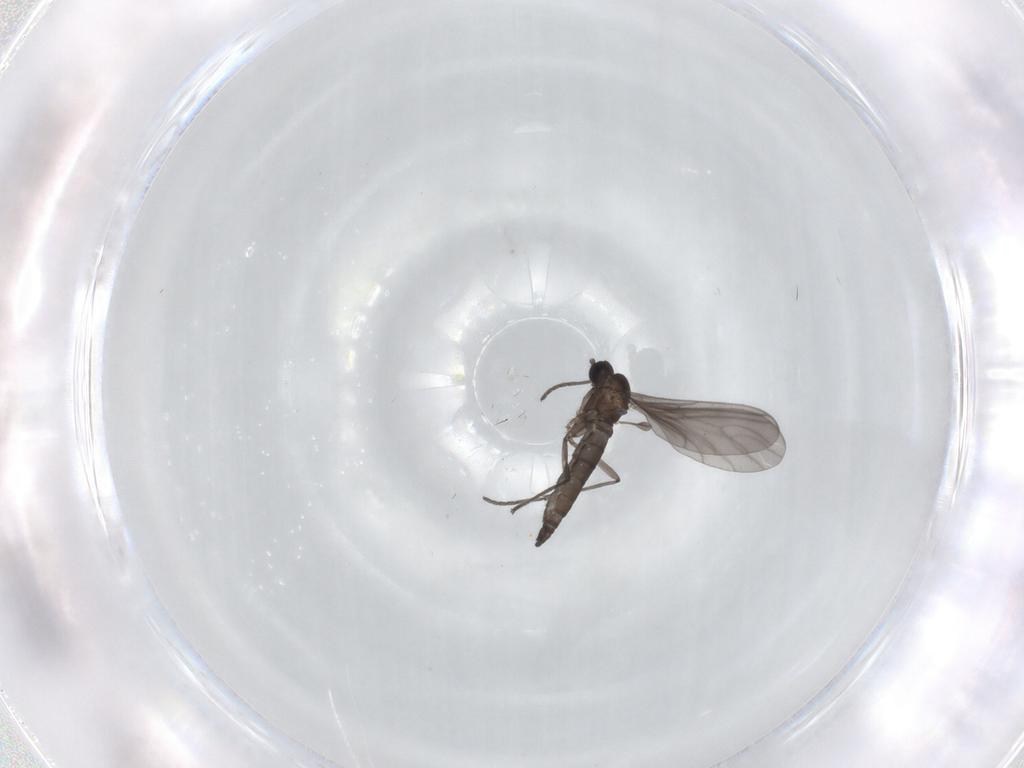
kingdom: Animalia
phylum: Arthropoda
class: Insecta
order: Diptera
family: Sciaridae
